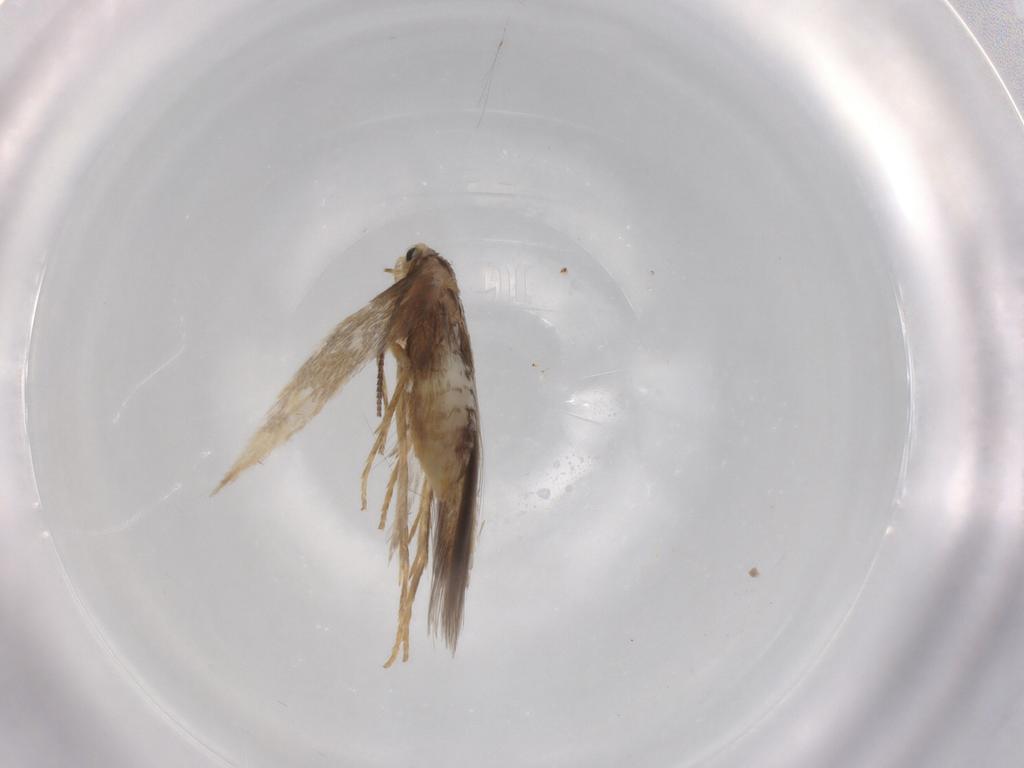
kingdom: Animalia
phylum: Arthropoda
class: Insecta
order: Lepidoptera
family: Nepticulidae
